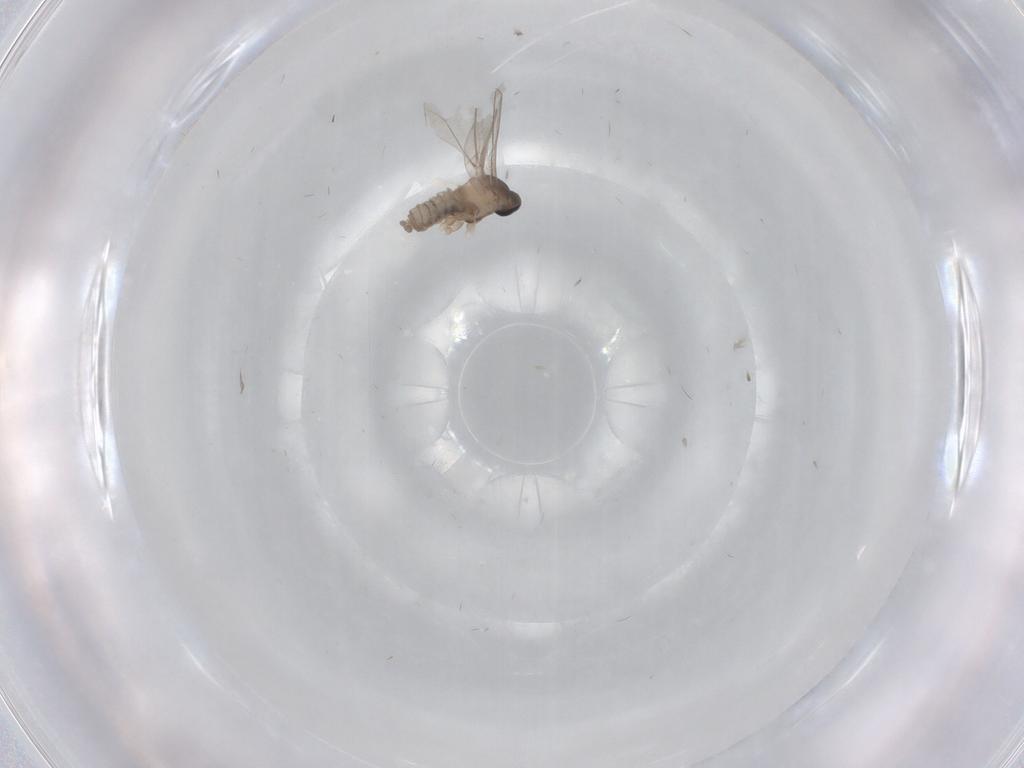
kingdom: Animalia
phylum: Arthropoda
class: Insecta
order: Diptera
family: Culicidae
